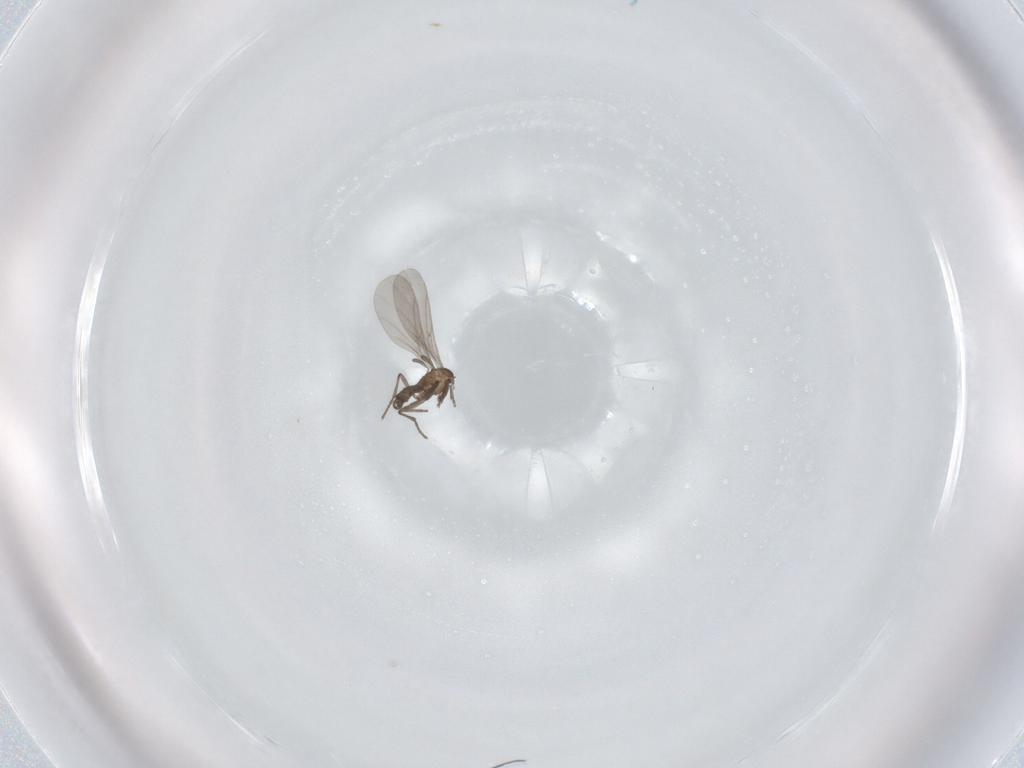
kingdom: Animalia
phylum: Arthropoda
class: Insecta
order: Diptera
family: Sciaridae
